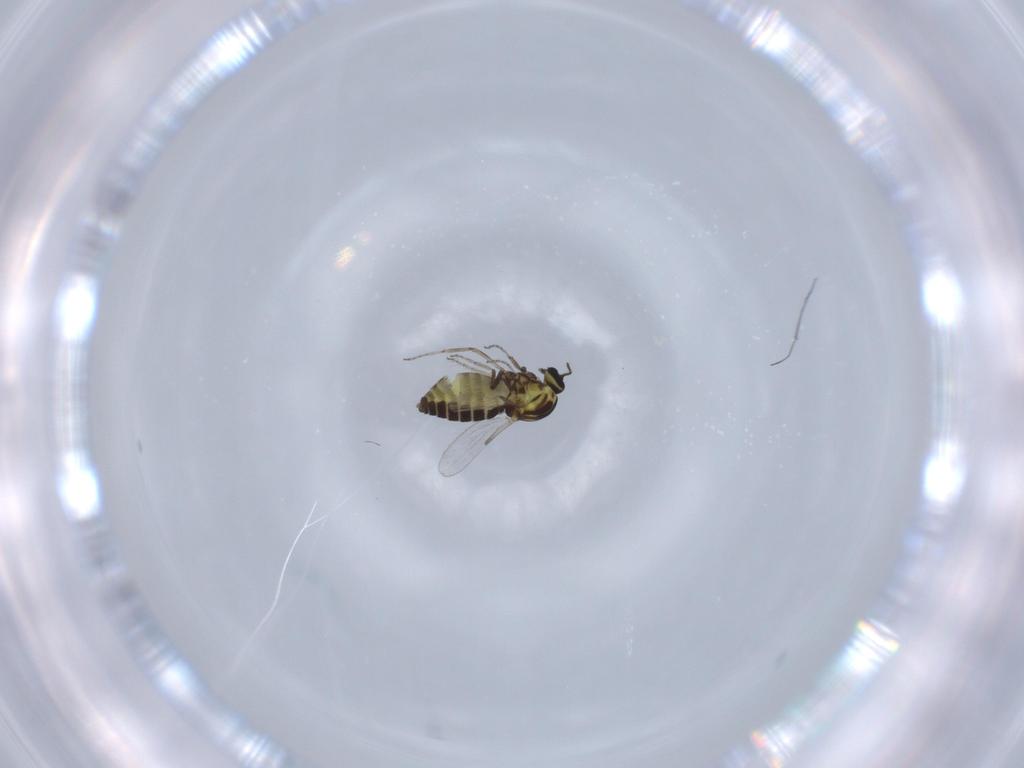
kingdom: Animalia
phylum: Arthropoda
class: Insecta
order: Diptera
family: Ceratopogonidae
